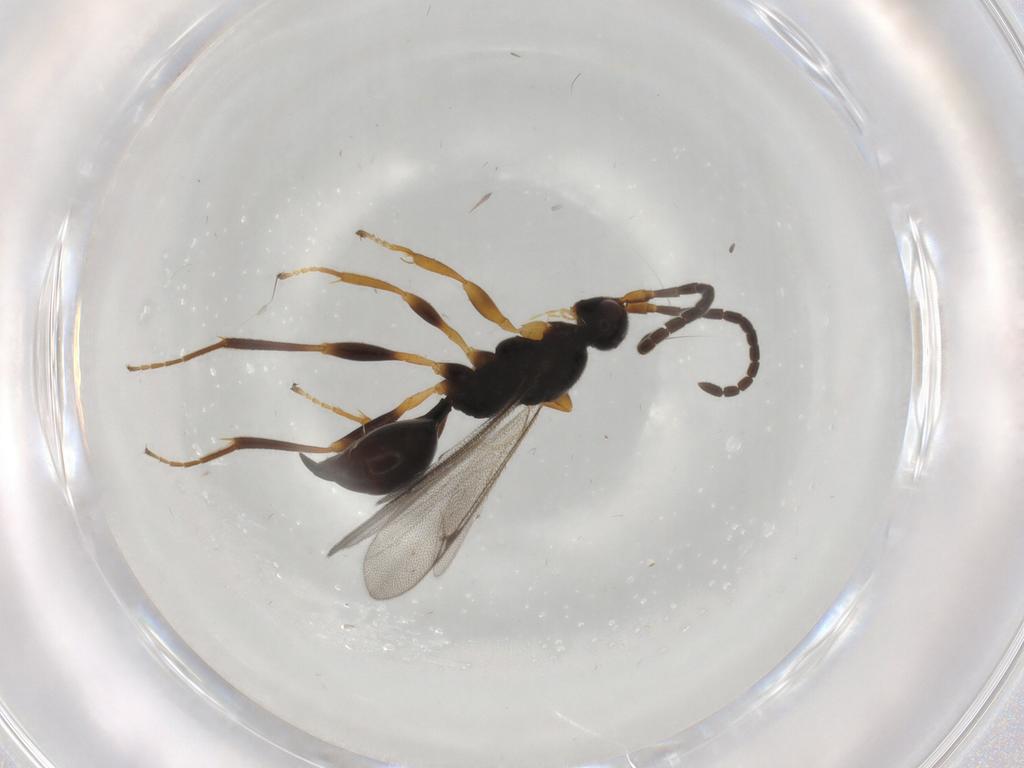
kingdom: Animalia
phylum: Arthropoda
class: Insecta
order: Hymenoptera
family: Proctotrupidae
